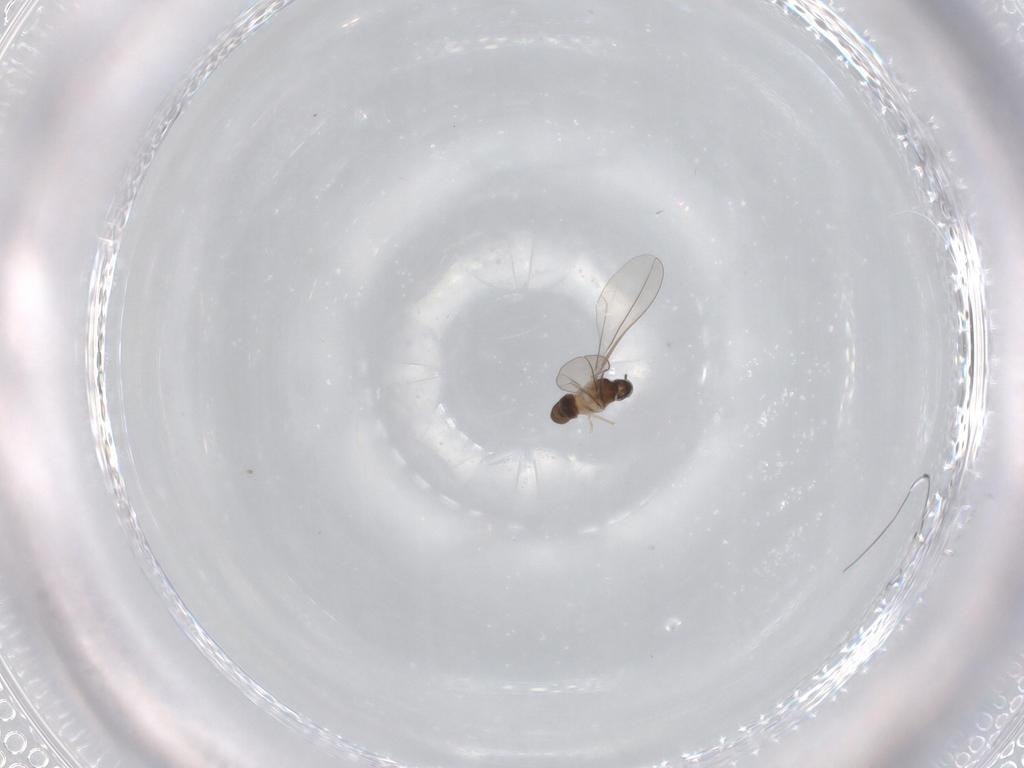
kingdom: Animalia
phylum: Arthropoda
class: Insecta
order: Diptera
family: Cecidomyiidae
